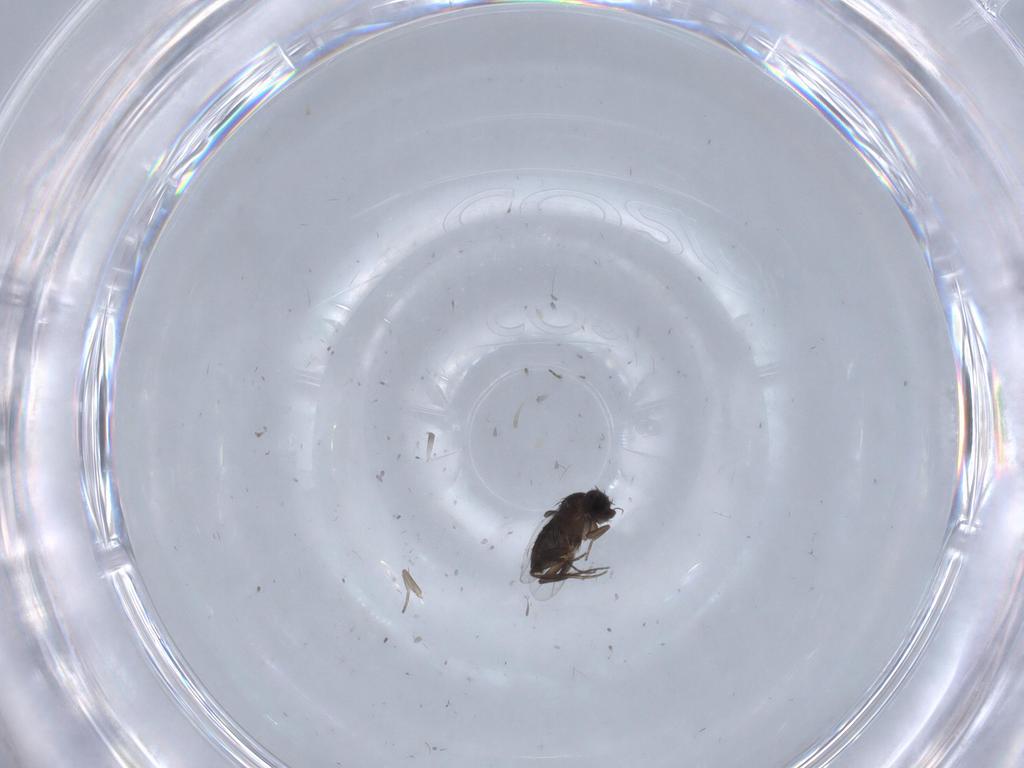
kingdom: Animalia
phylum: Arthropoda
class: Insecta
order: Diptera
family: Phoridae
